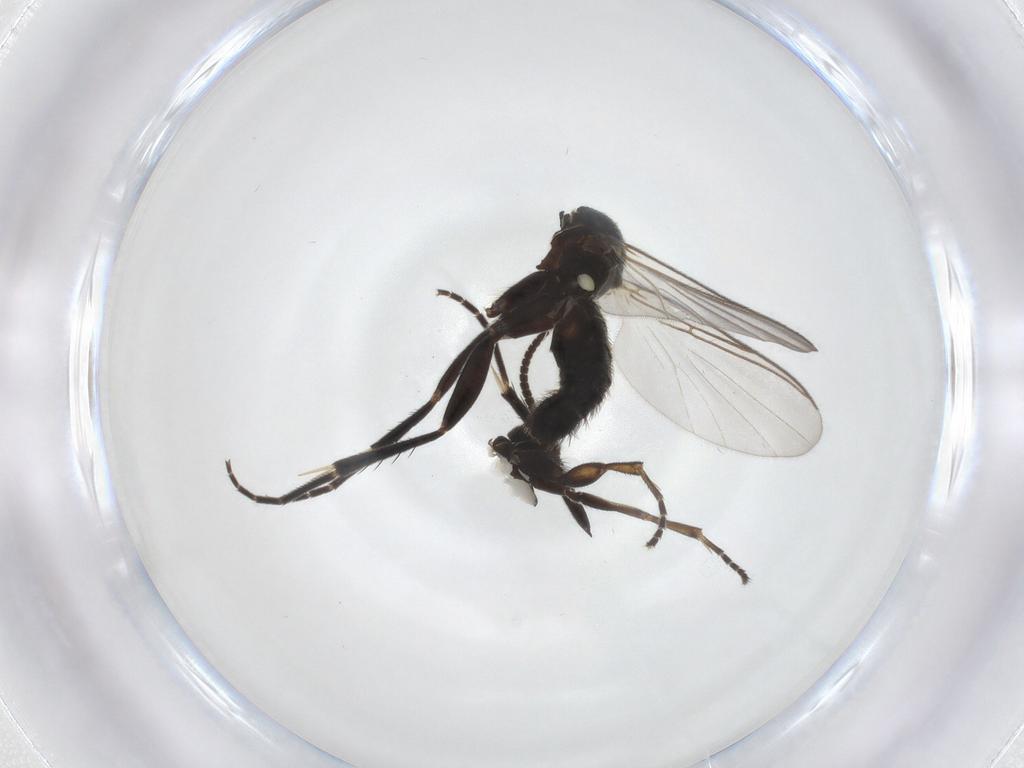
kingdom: Animalia
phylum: Arthropoda
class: Insecta
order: Diptera
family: Mycetophilidae
